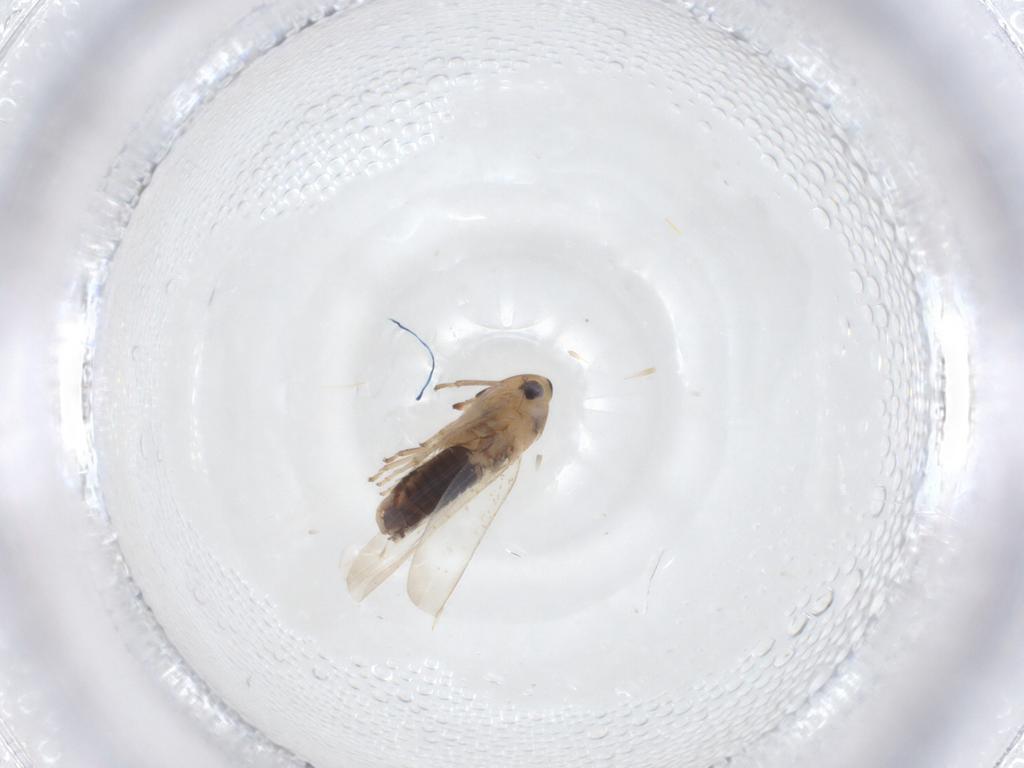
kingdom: Animalia
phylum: Arthropoda
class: Insecta
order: Hemiptera
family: Cicadellidae
